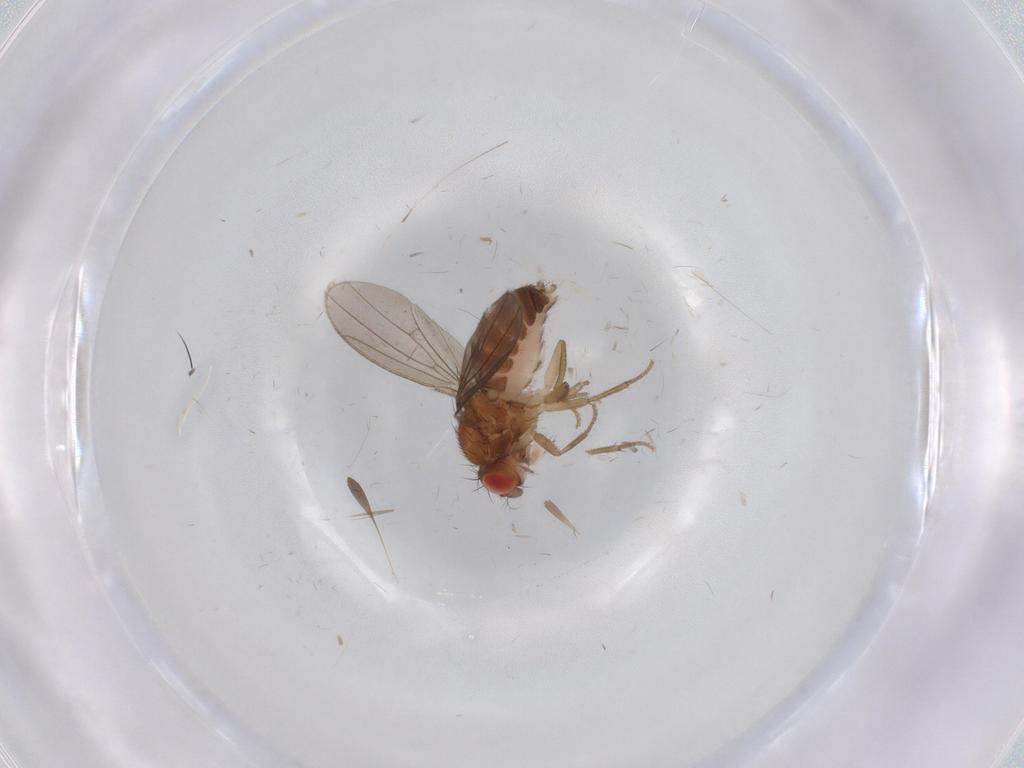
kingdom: Animalia
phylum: Arthropoda
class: Insecta
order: Diptera
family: Drosophilidae
